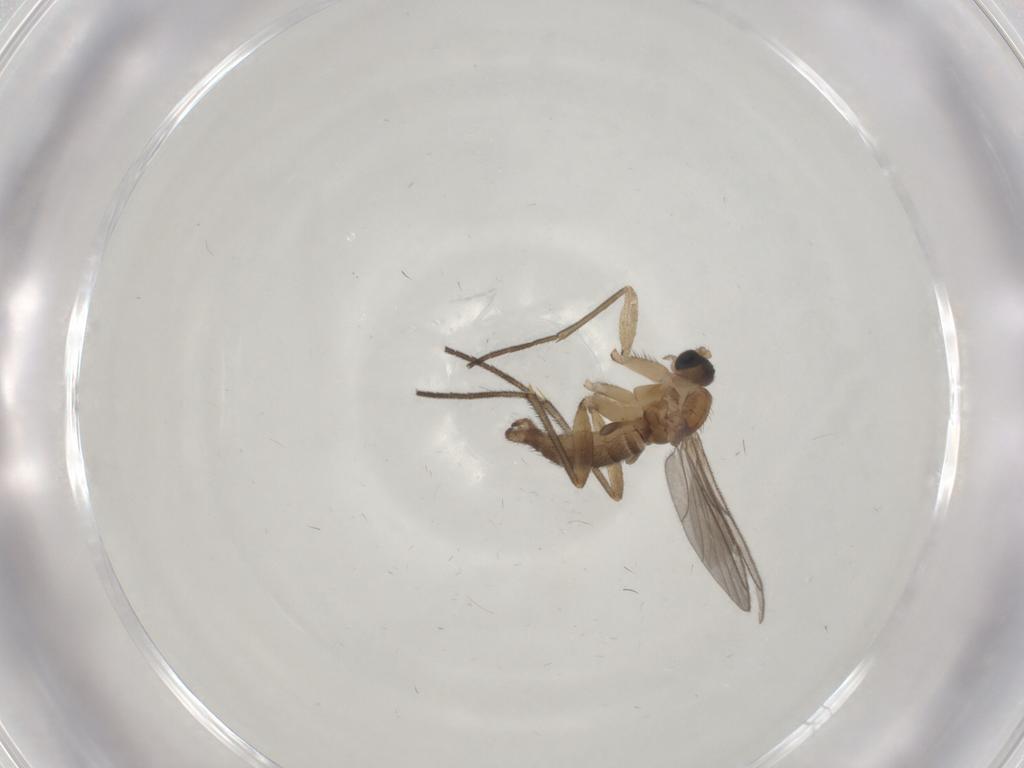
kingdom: Animalia
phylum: Arthropoda
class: Insecta
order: Diptera
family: Sciaridae
